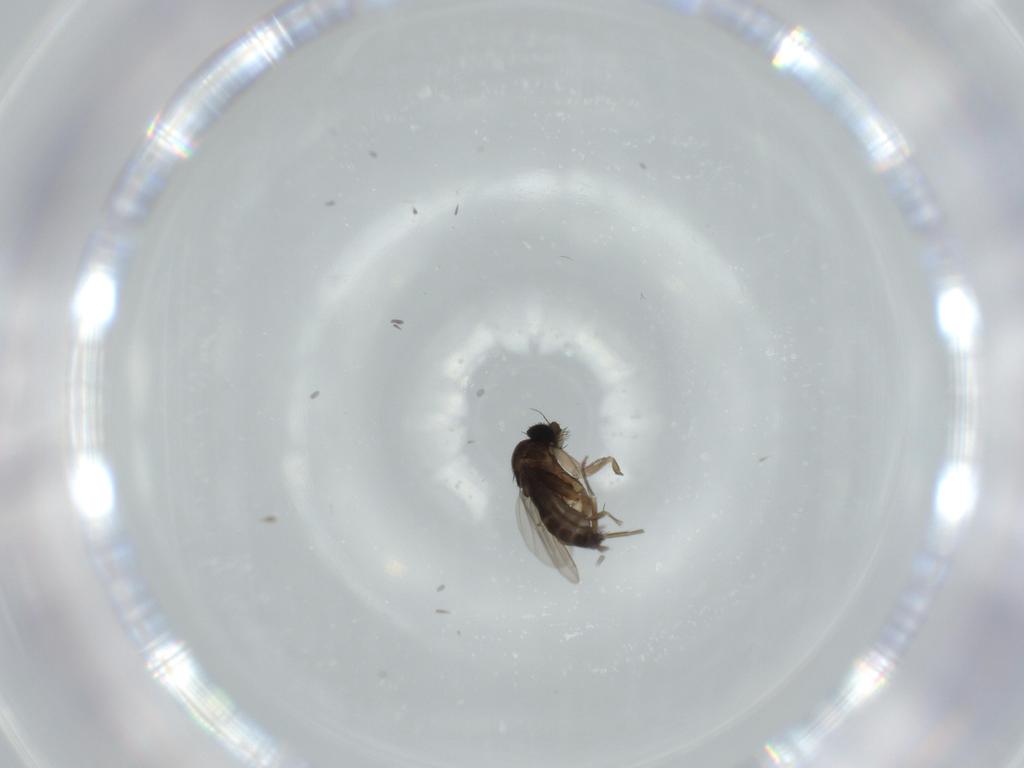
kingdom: Animalia
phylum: Arthropoda
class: Insecta
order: Diptera
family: Phoridae
